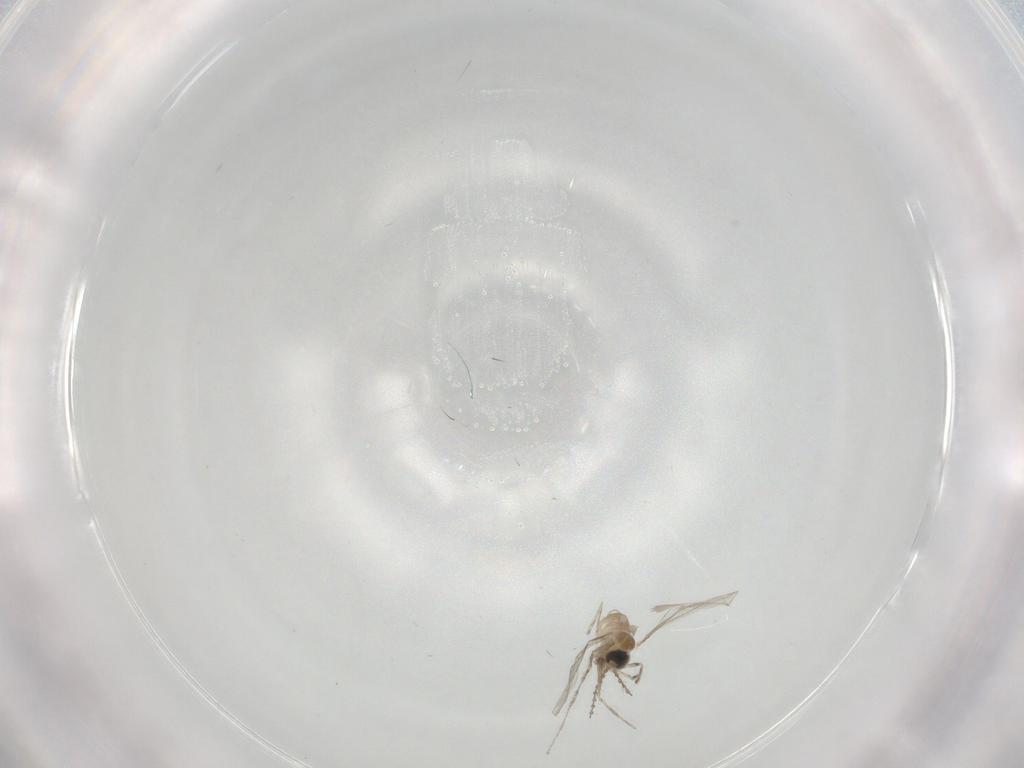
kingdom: Animalia
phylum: Arthropoda
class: Insecta
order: Diptera
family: Cecidomyiidae
